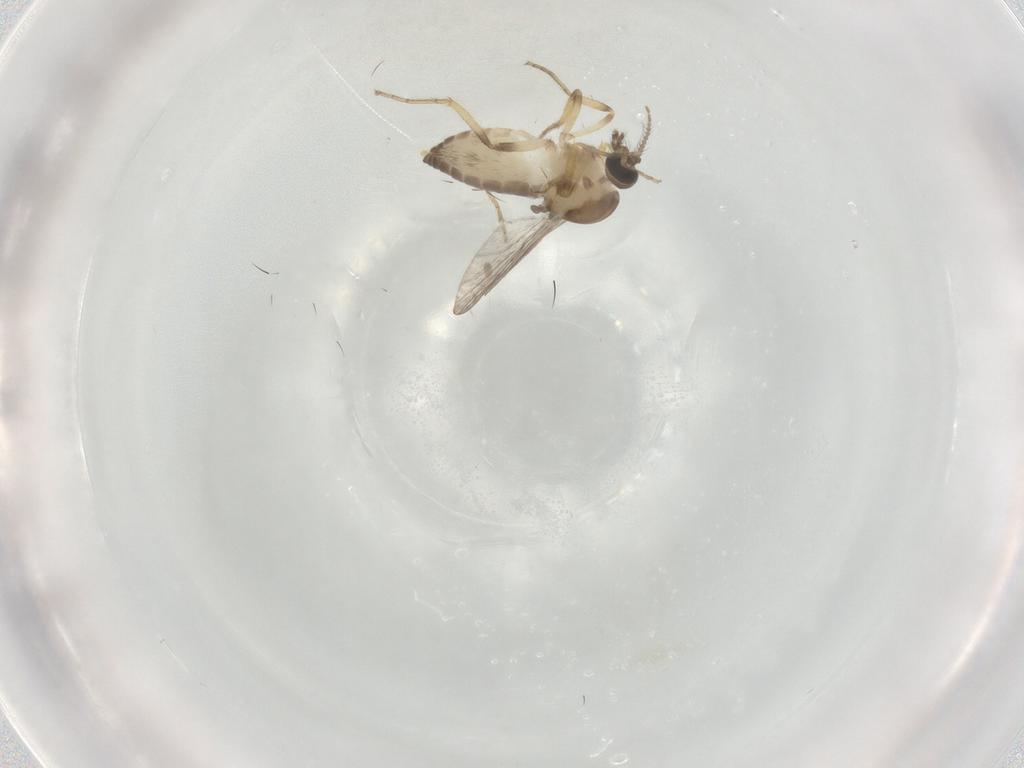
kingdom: Animalia
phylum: Arthropoda
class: Insecta
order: Diptera
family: Ceratopogonidae
